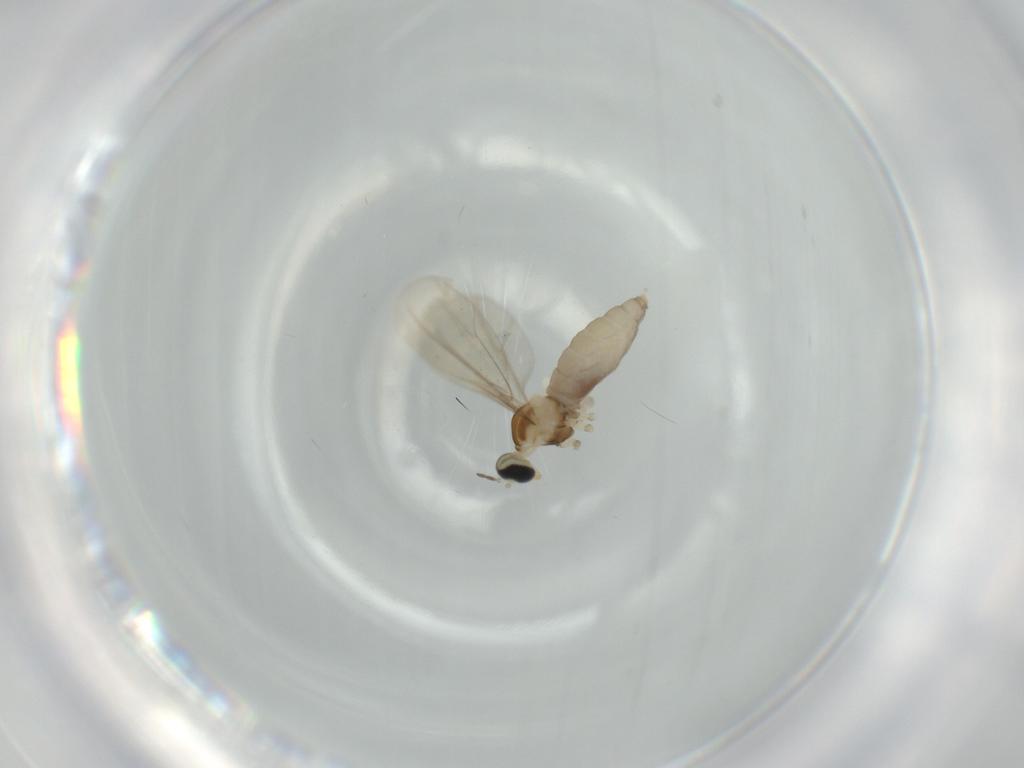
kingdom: Animalia
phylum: Arthropoda
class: Insecta
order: Diptera
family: Cecidomyiidae
